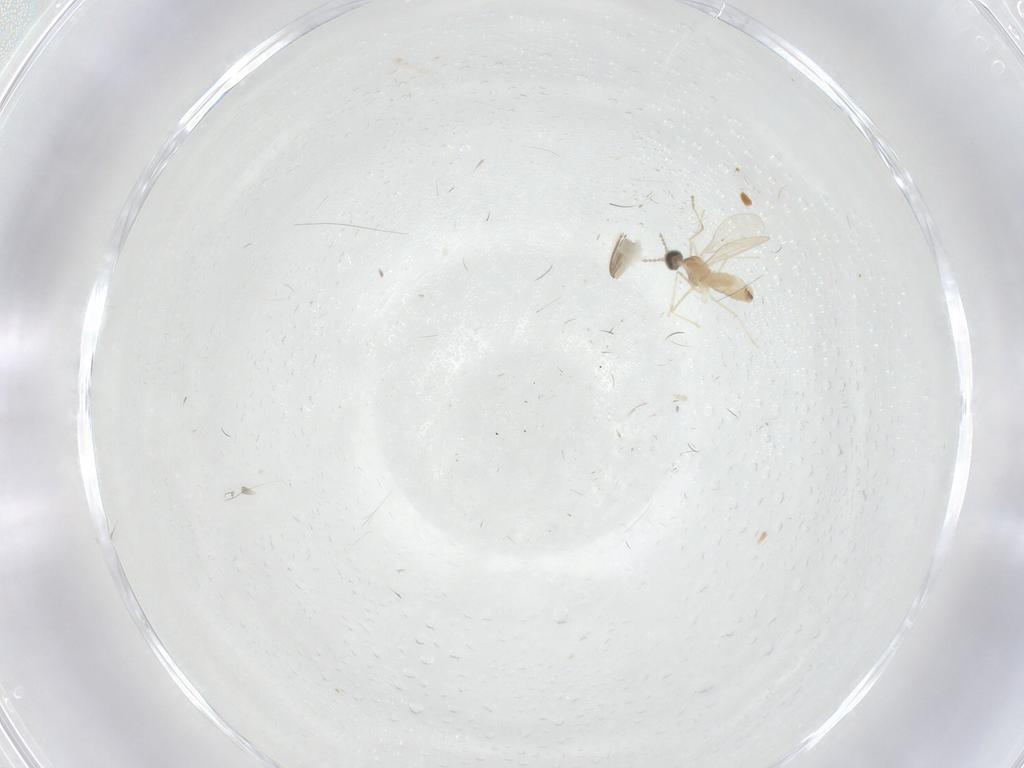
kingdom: Animalia
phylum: Arthropoda
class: Insecta
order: Diptera
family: Limoniidae
